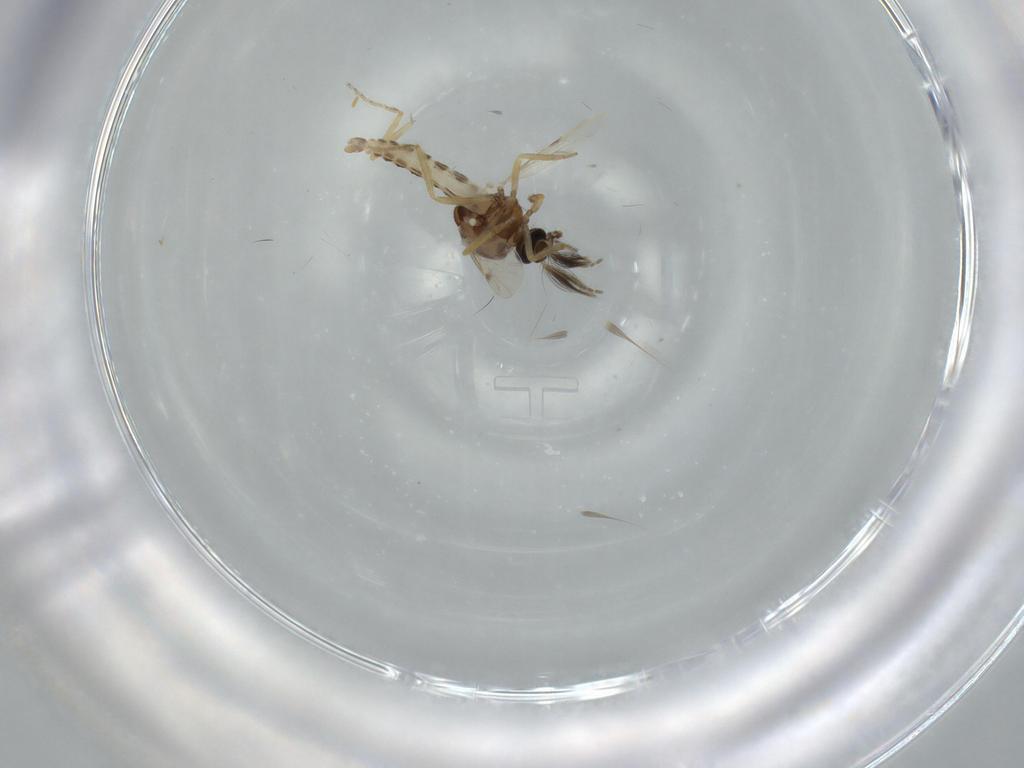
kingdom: Animalia
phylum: Arthropoda
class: Insecta
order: Diptera
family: Ceratopogonidae
